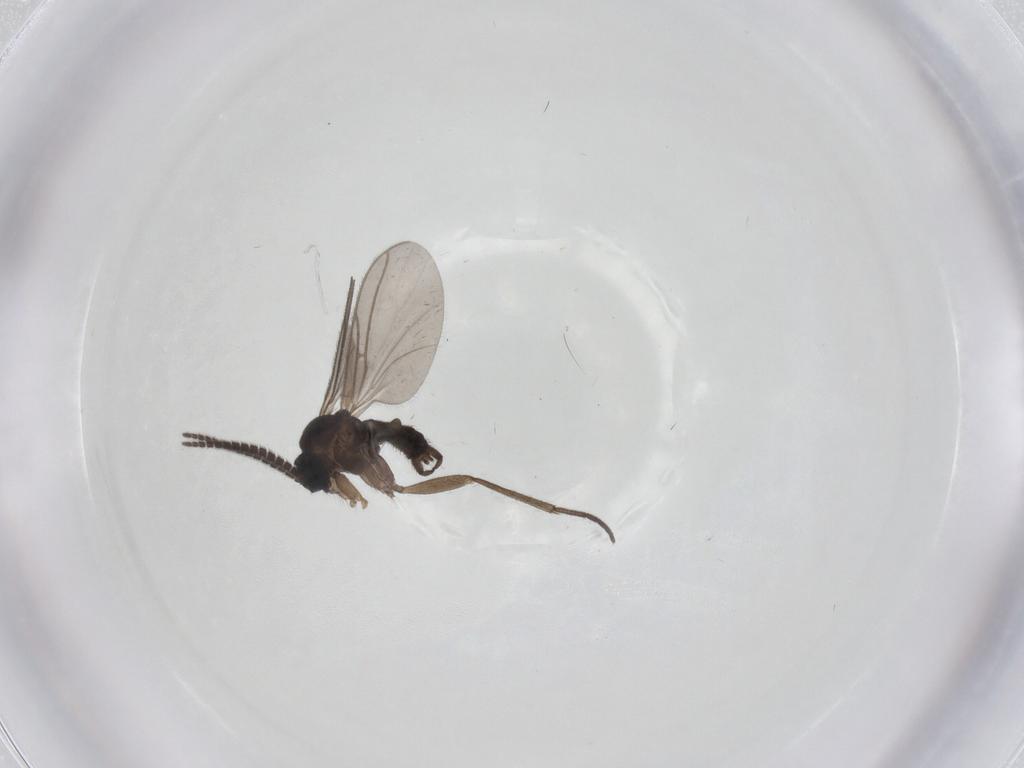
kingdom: Animalia
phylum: Arthropoda
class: Insecta
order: Diptera
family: Sciaridae
